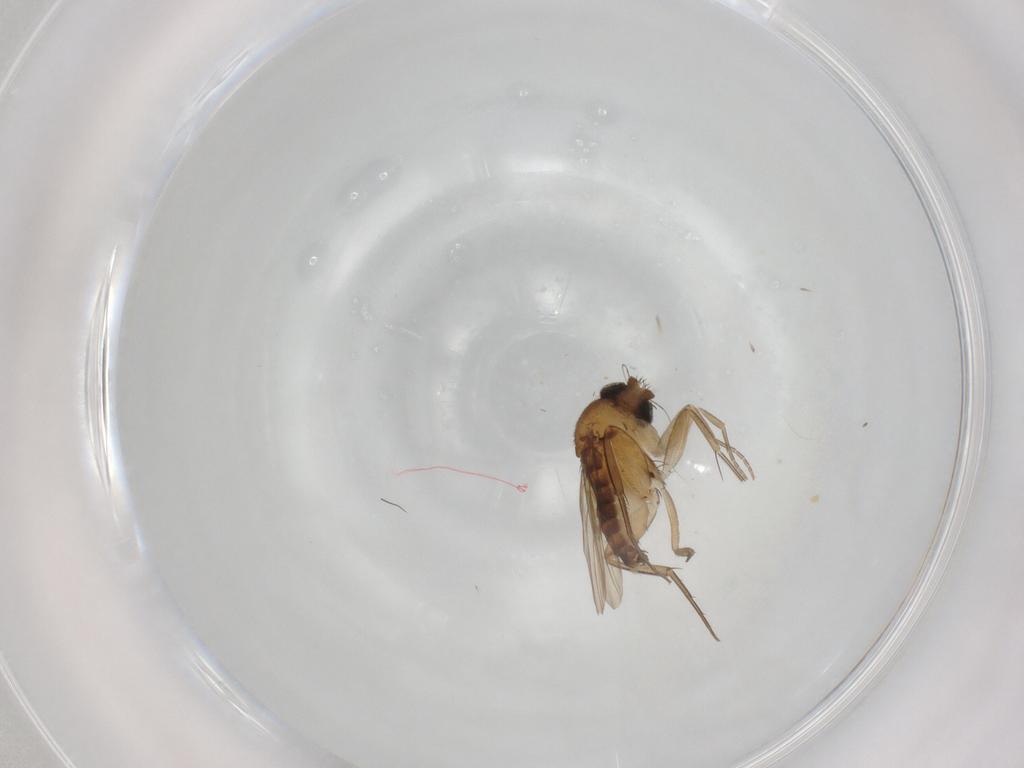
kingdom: Animalia
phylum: Arthropoda
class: Insecta
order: Diptera
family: Phoridae
